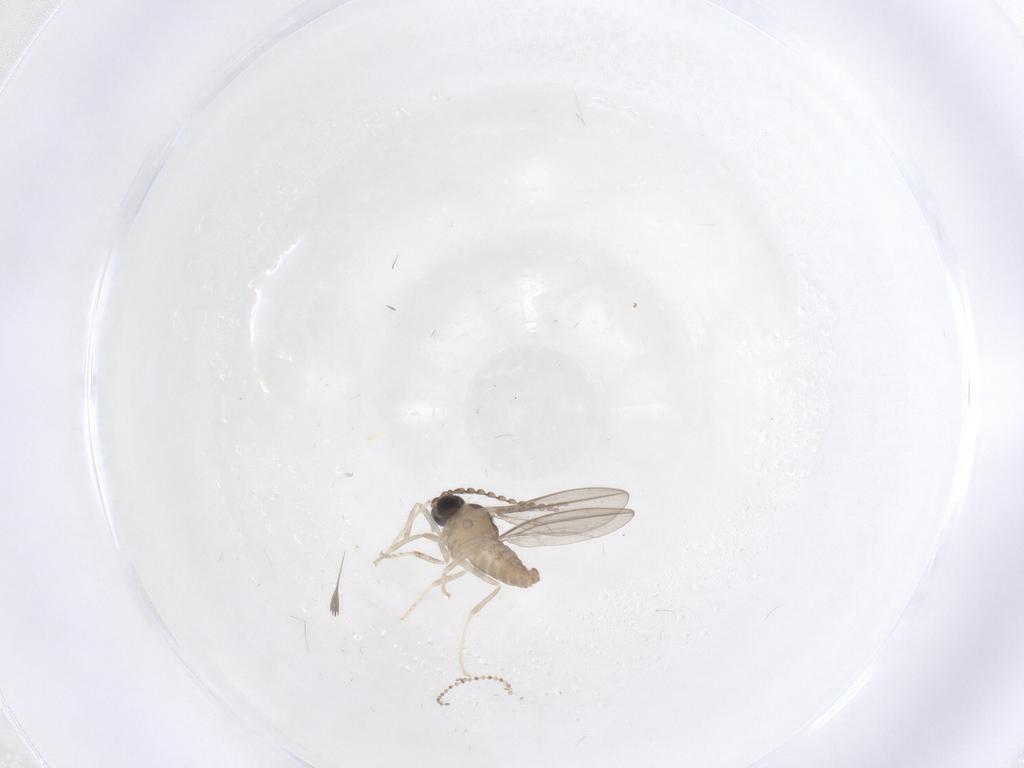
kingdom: Animalia
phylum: Arthropoda
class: Insecta
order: Diptera
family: Cecidomyiidae
